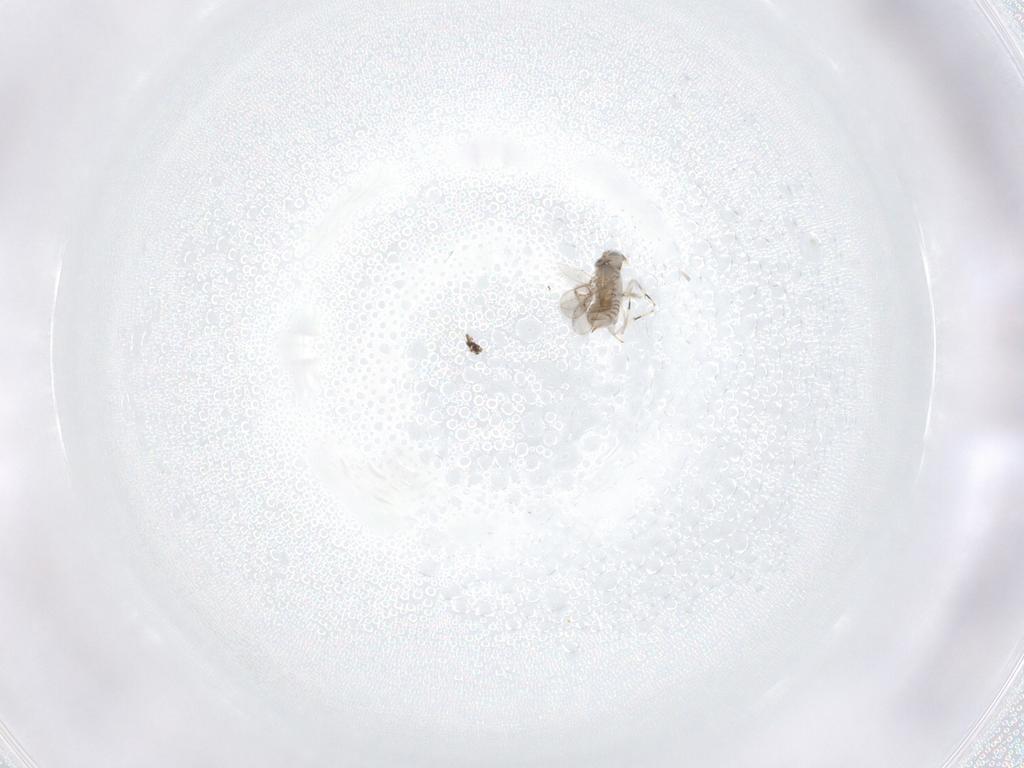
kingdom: Animalia
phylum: Arthropoda
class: Insecta
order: Hymenoptera
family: Aphelinidae
